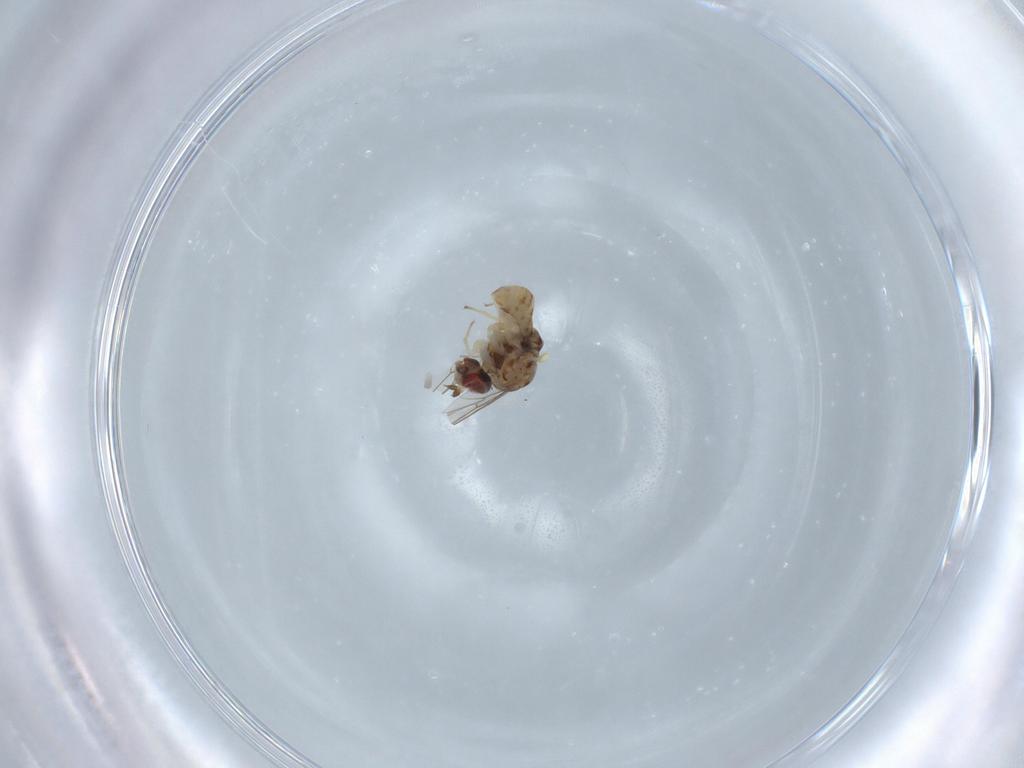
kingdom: Animalia
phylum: Arthropoda
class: Insecta
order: Diptera
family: Bombyliidae
